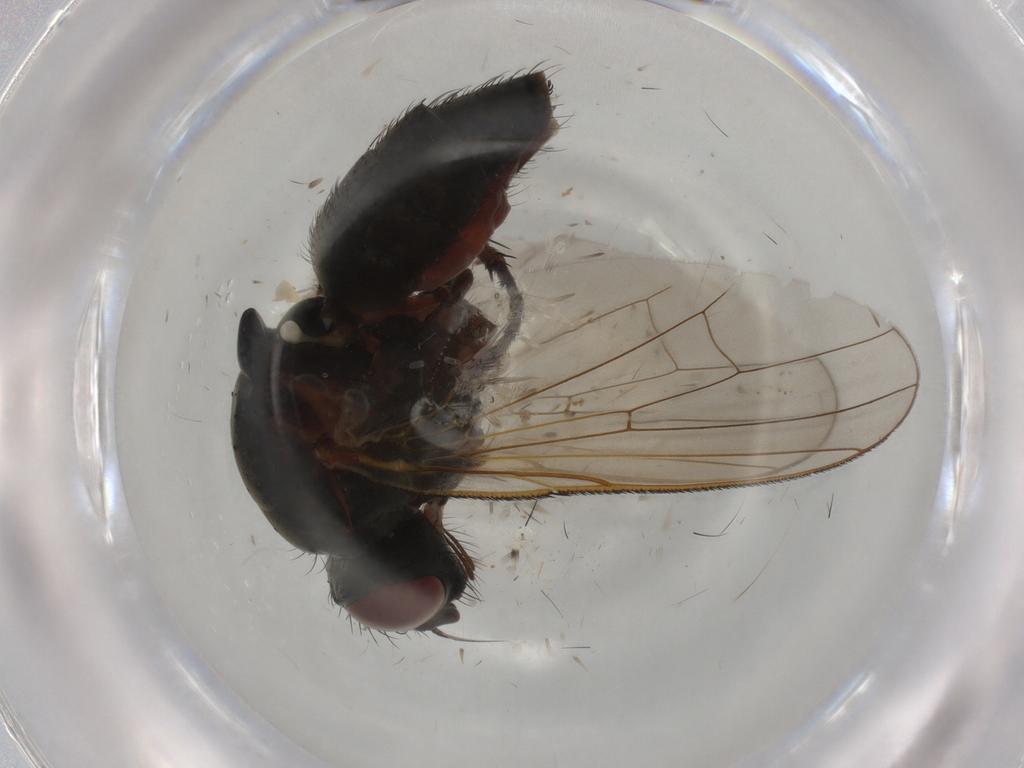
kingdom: Animalia
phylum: Arthropoda
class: Insecta
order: Diptera
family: Anthomyiidae
